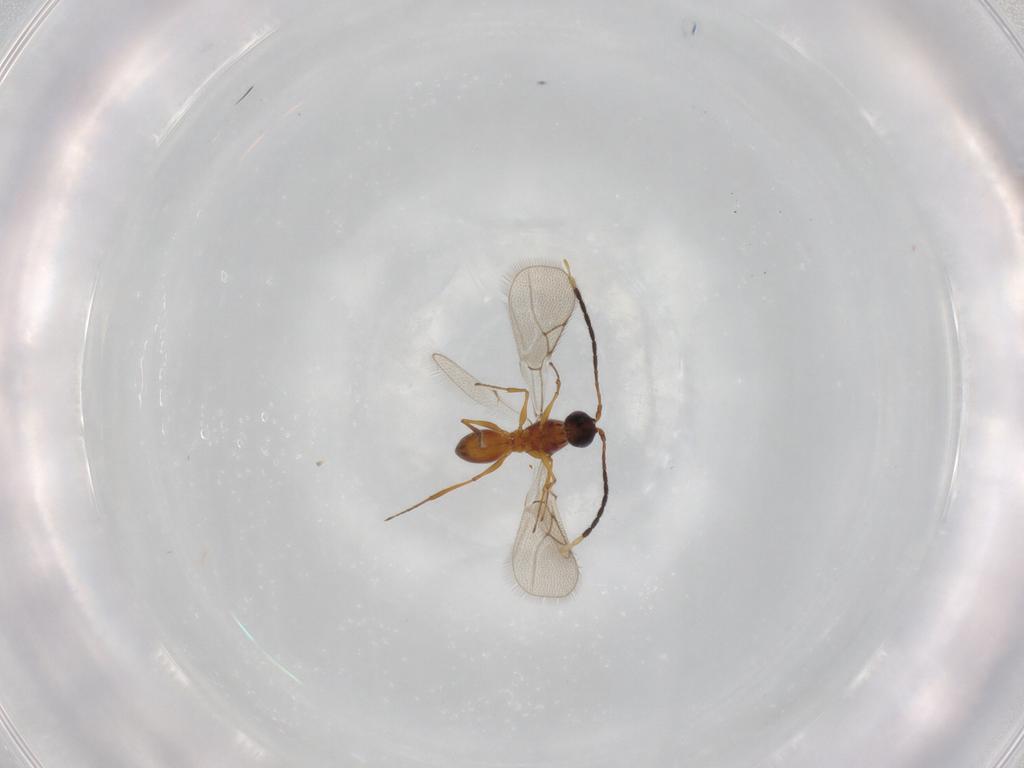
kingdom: Animalia
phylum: Arthropoda
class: Insecta
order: Hymenoptera
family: Figitidae
